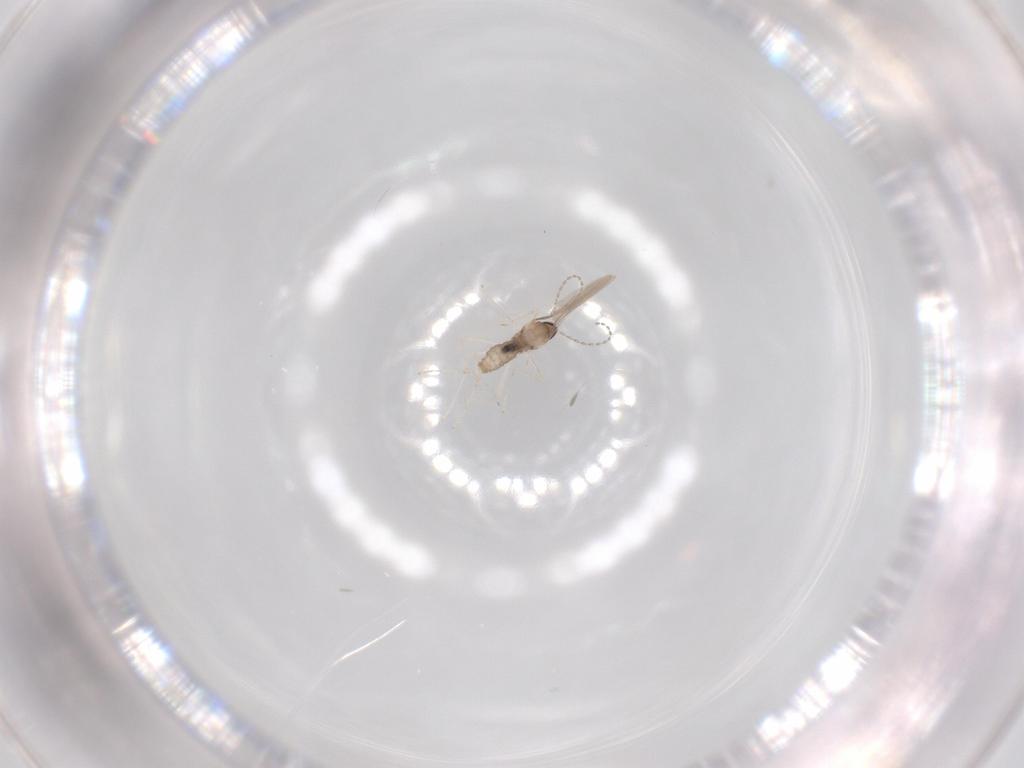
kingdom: Animalia
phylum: Arthropoda
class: Insecta
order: Diptera
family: Cecidomyiidae
